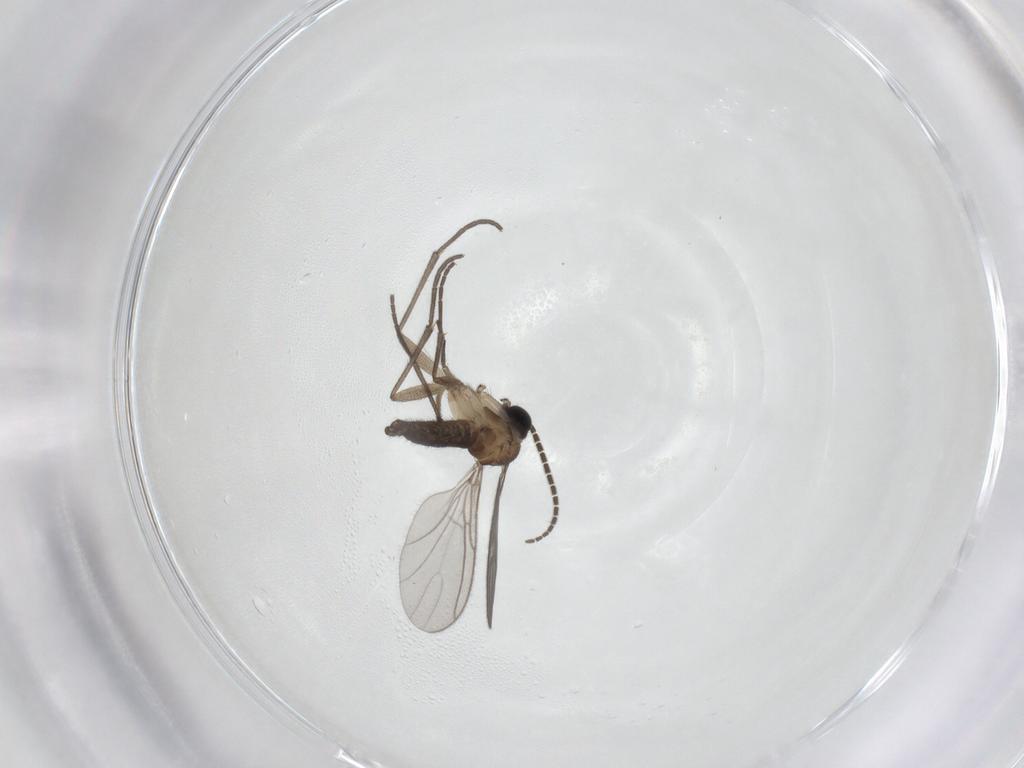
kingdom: Animalia
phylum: Arthropoda
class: Insecta
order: Diptera
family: Sciaridae
